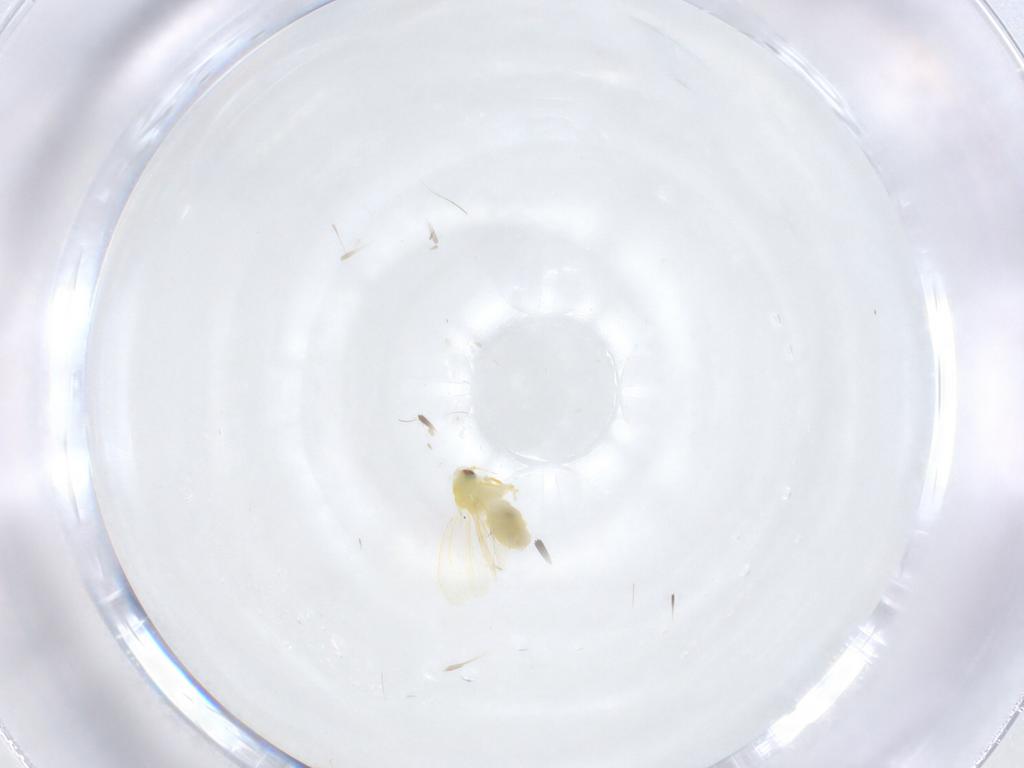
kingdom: Animalia
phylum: Arthropoda
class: Insecta
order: Hemiptera
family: Aleyrodidae
